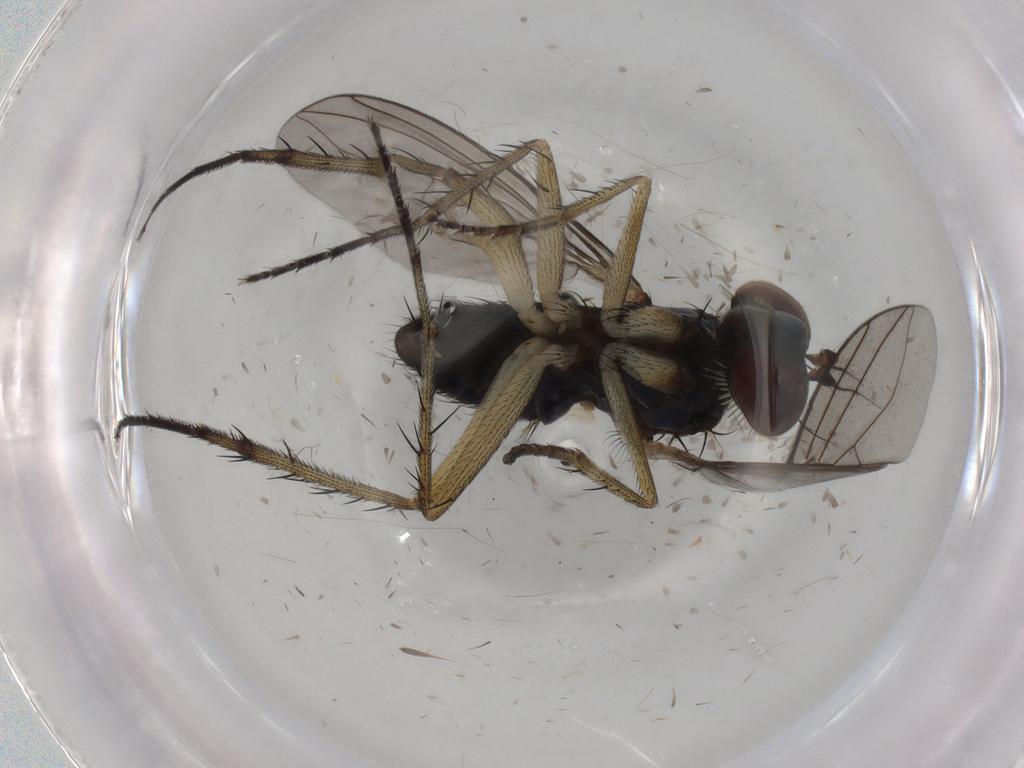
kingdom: Animalia
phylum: Arthropoda
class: Insecta
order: Diptera
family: Dolichopodidae
